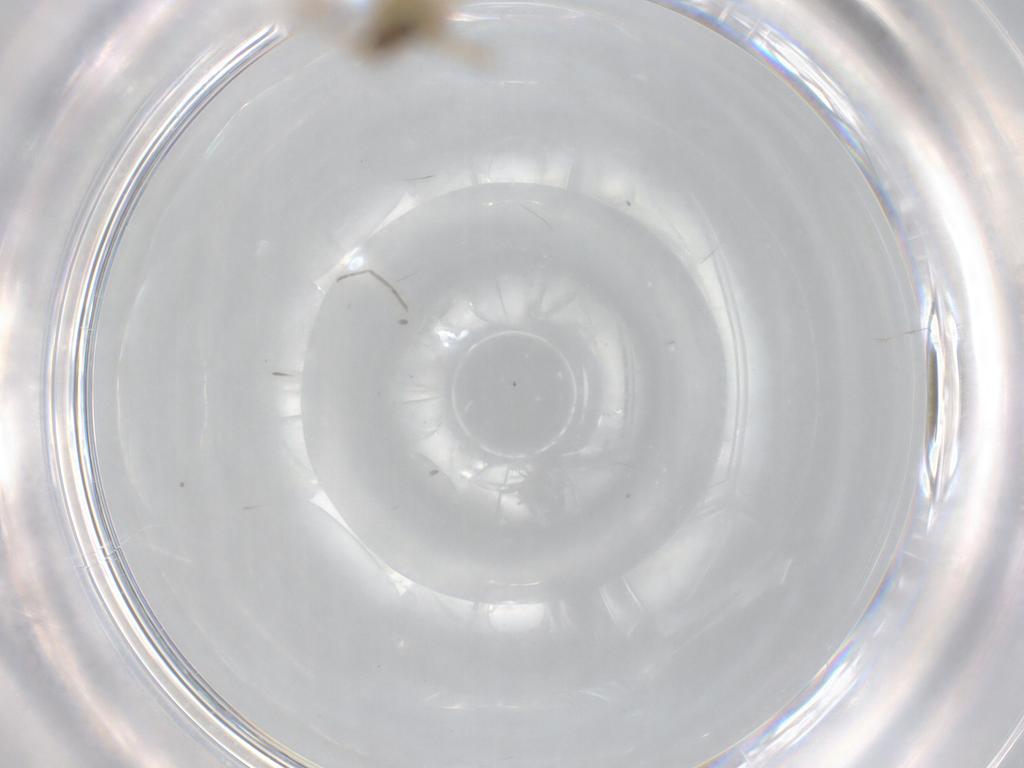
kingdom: Animalia
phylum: Arthropoda
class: Insecta
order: Diptera
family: Chironomidae
